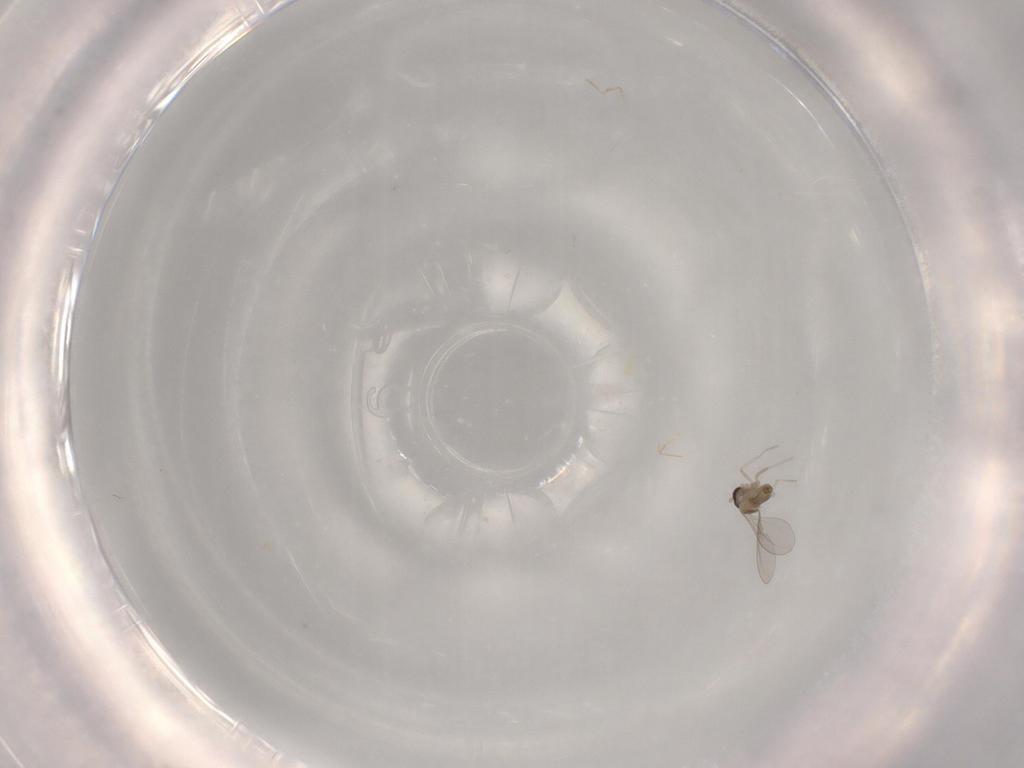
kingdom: Animalia
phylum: Arthropoda
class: Insecta
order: Diptera
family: Cecidomyiidae
